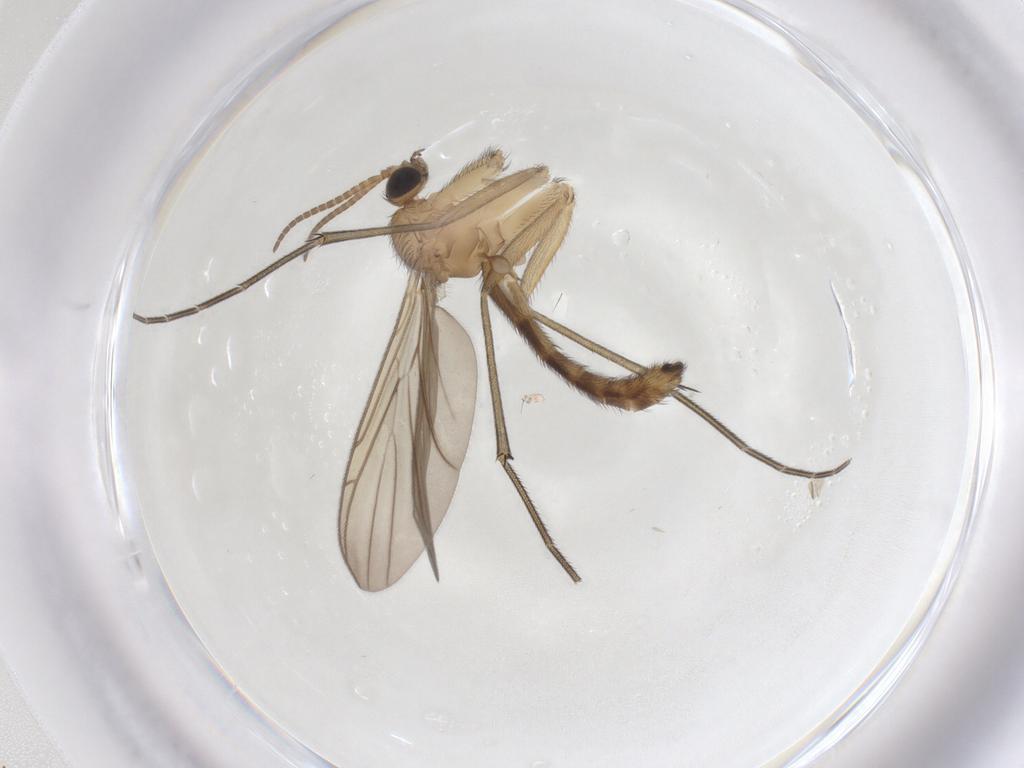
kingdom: Animalia
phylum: Arthropoda
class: Insecta
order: Diptera
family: Keroplatidae
